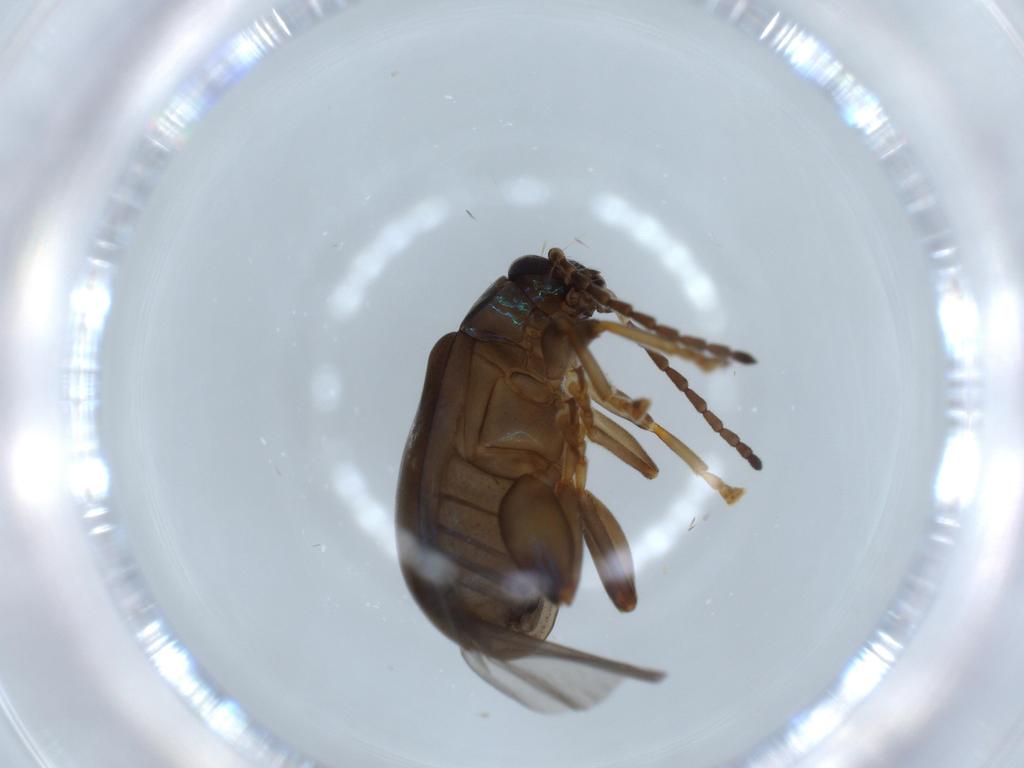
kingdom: Animalia
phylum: Arthropoda
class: Insecta
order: Coleoptera
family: Chrysomelidae
